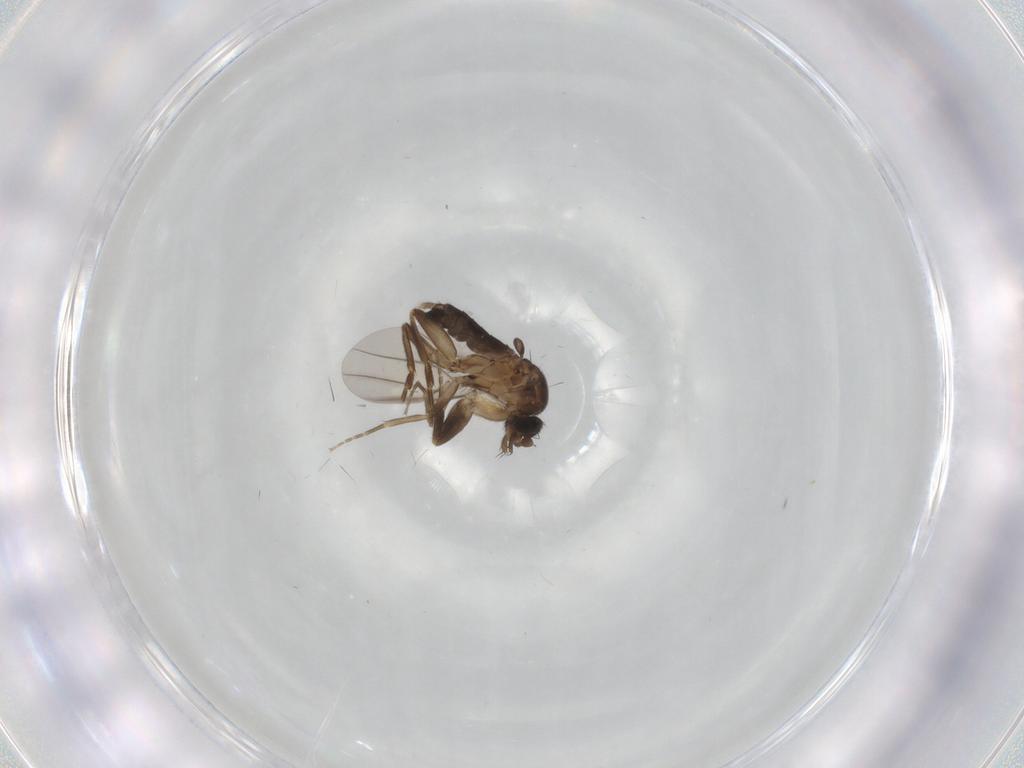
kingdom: Animalia
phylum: Arthropoda
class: Insecta
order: Diptera
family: Phoridae
